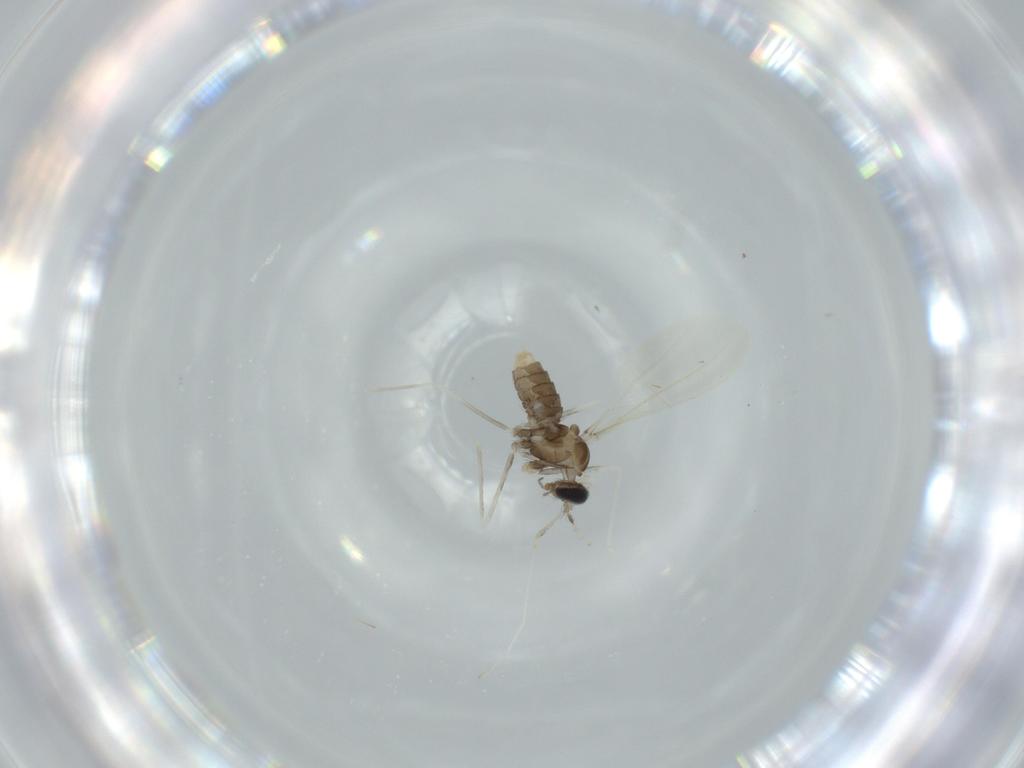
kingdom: Animalia
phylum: Arthropoda
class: Insecta
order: Diptera
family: Cecidomyiidae
